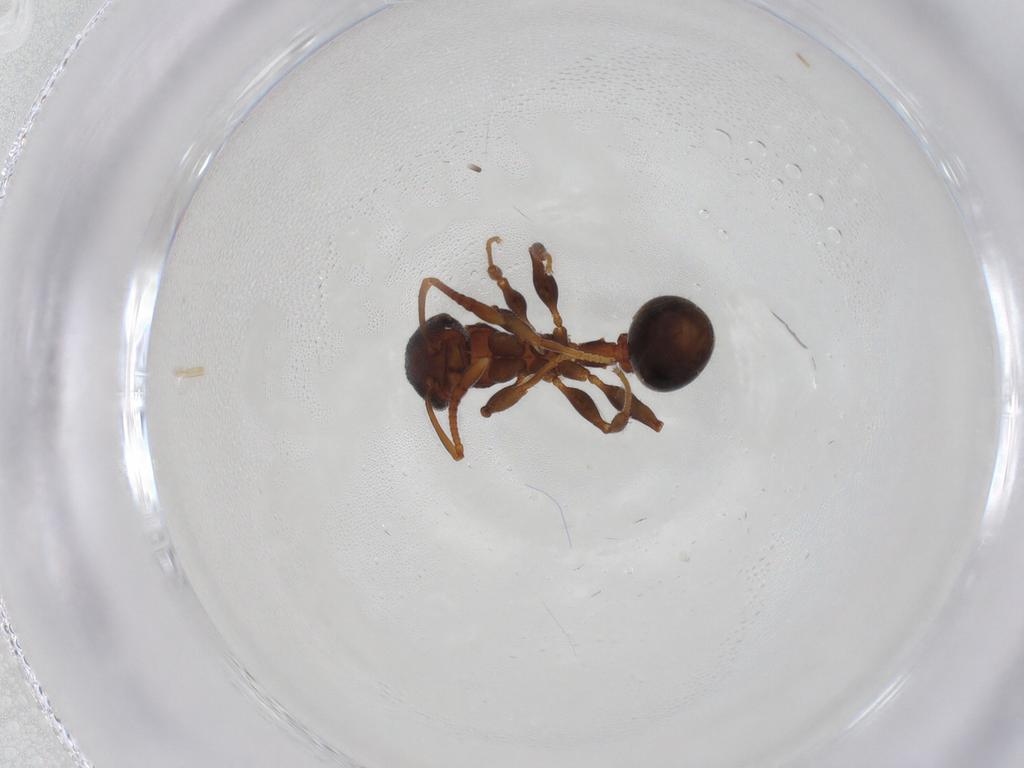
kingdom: Animalia
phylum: Arthropoda
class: Insecta
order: Hymenoptera
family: Formicidae
